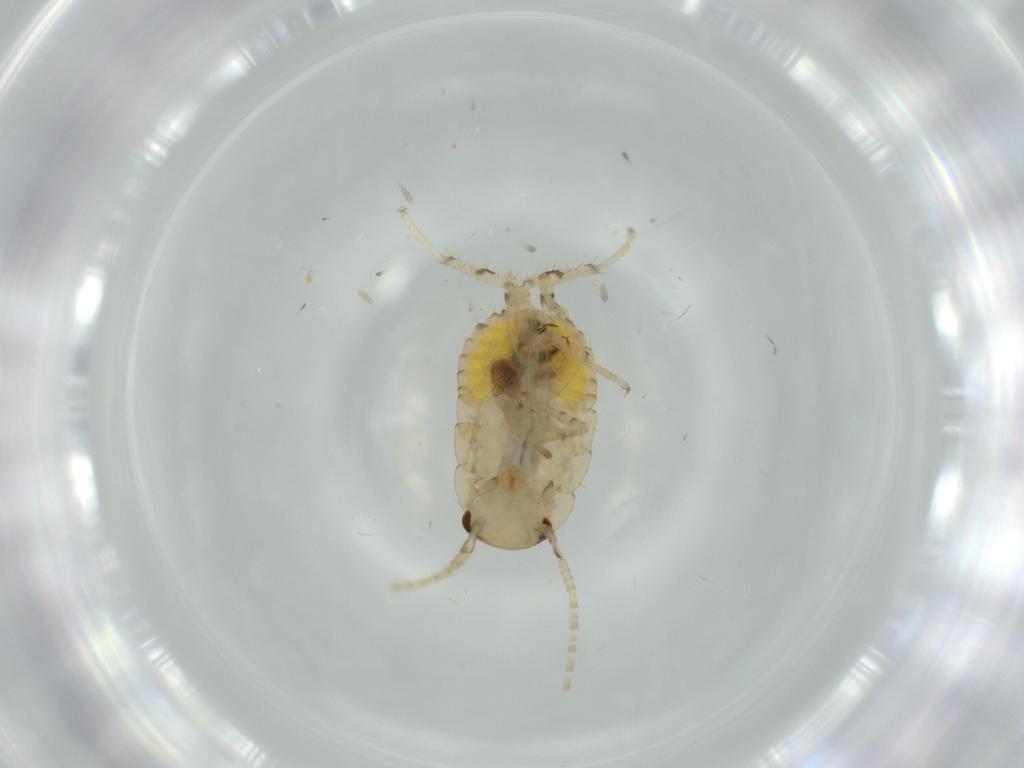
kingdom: Animalia
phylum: Arthropoda
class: Insecta
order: Blattodea
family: Ectobiidae
